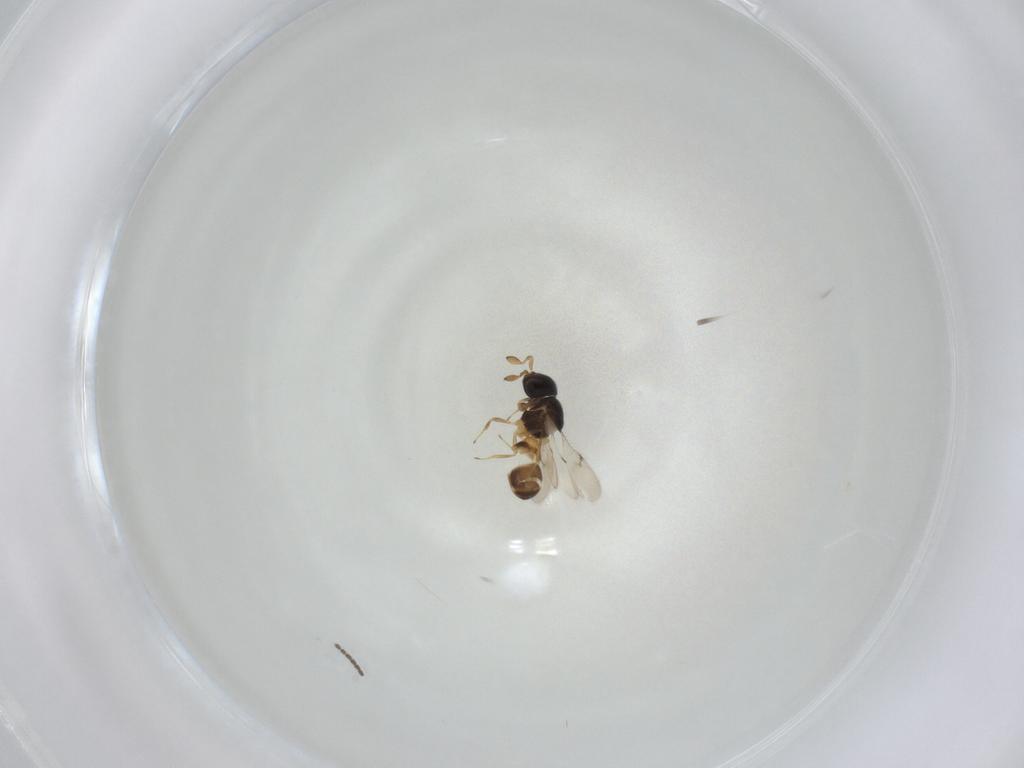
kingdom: Animalia
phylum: Arthropoda
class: Insecta
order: Hymenoptera
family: Scelionidae
